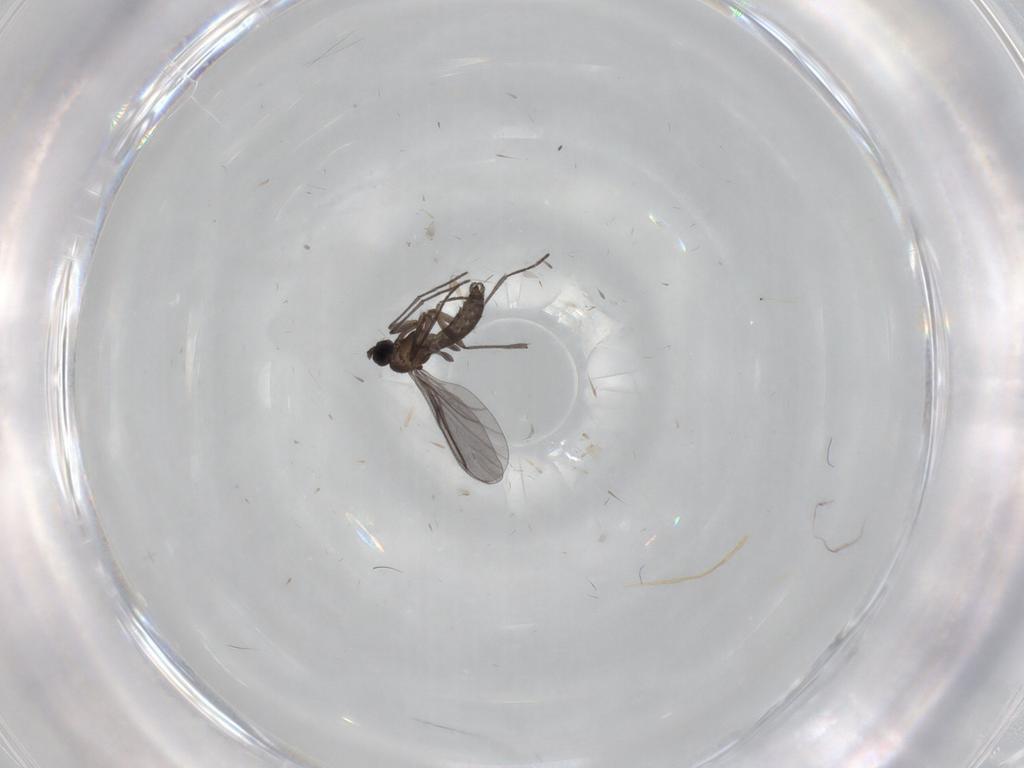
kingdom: Animalia
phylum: Arthropoda
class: Insecta
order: Diptera
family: Chironomidae
